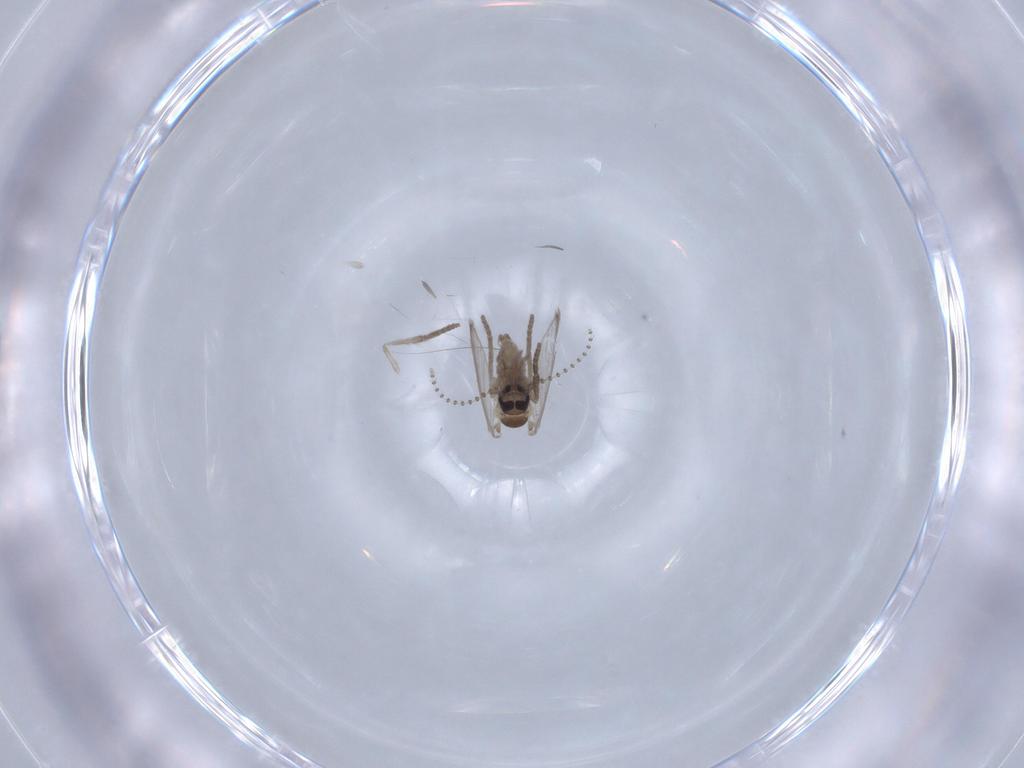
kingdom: Animalia
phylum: Arthropoda
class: Insecta
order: Diptera
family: Psychodidae
